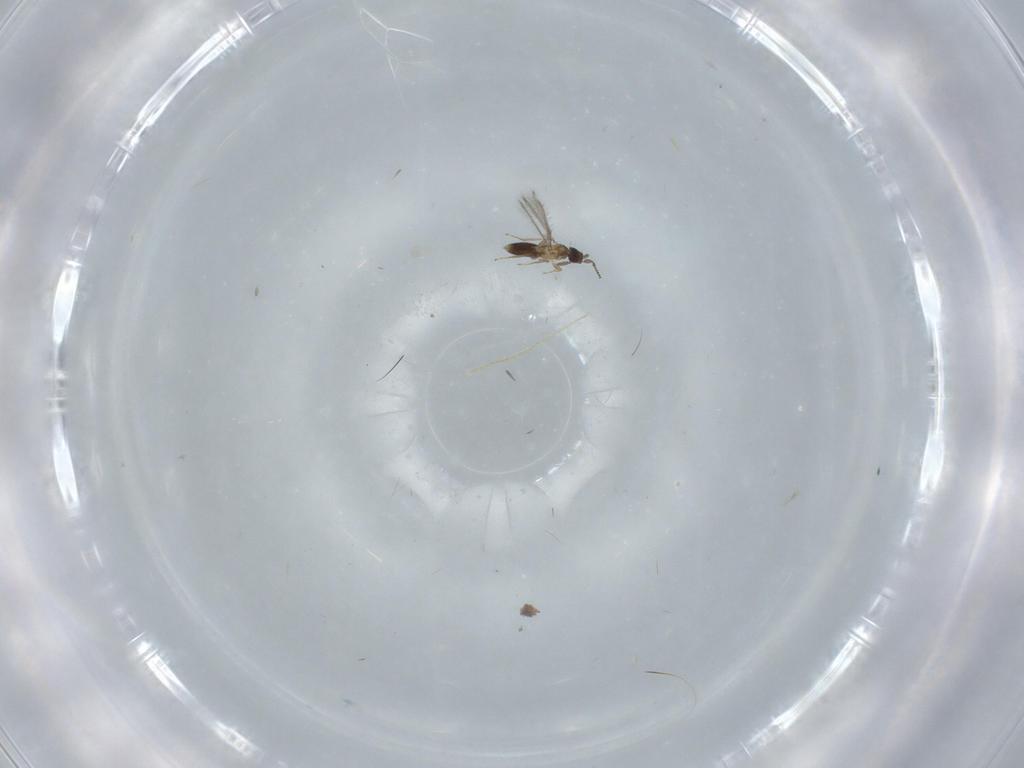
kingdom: Animalia
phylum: Arthropoda
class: Insecta
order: Hymenoptera
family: Mymaridae
